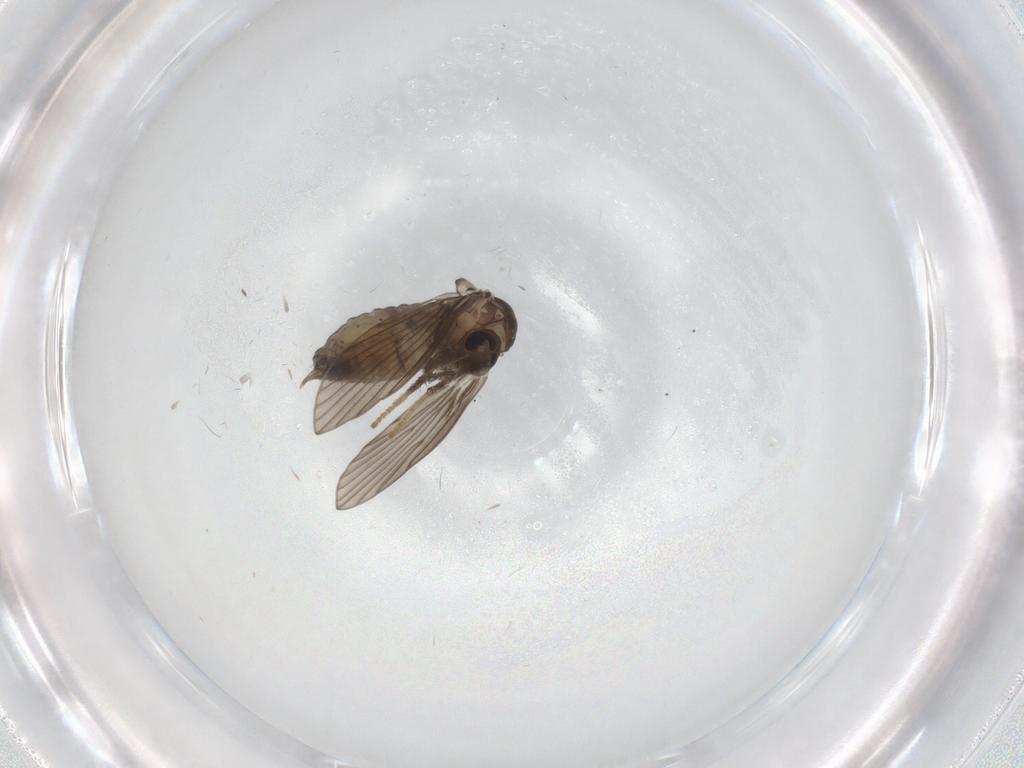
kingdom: Animalia
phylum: Arthropoda
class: Insecta
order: Diptera
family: Psychodidae
